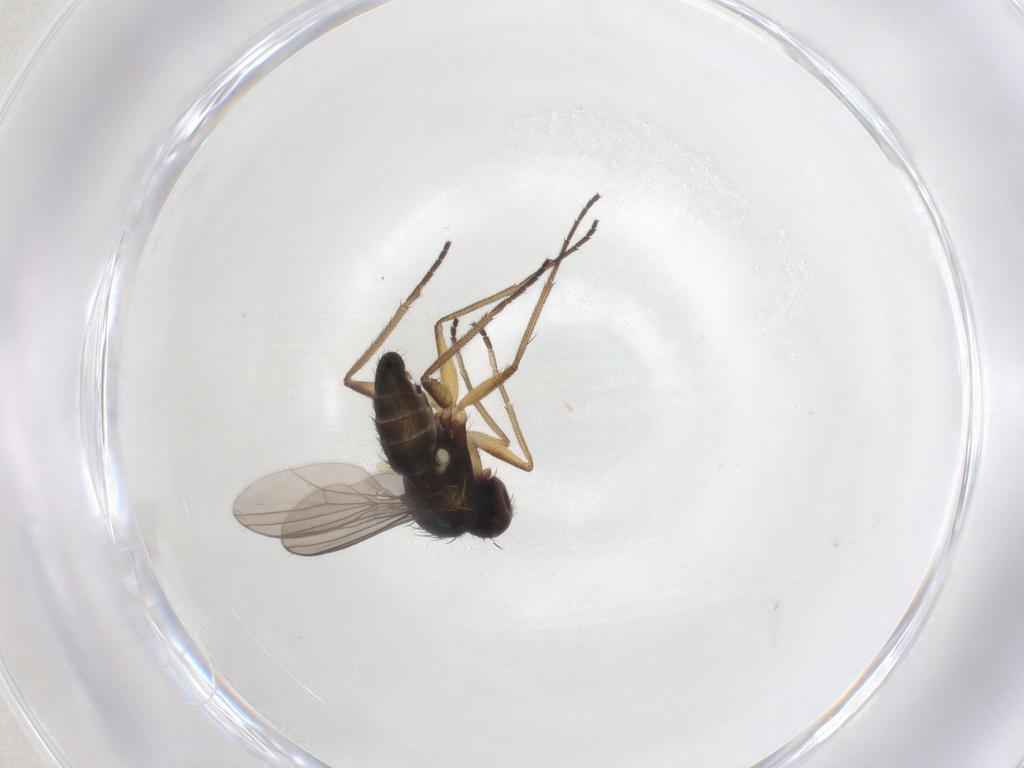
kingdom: Animalia
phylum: Arthropoda
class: Insecta
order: Diptera
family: Dolichopodidae
